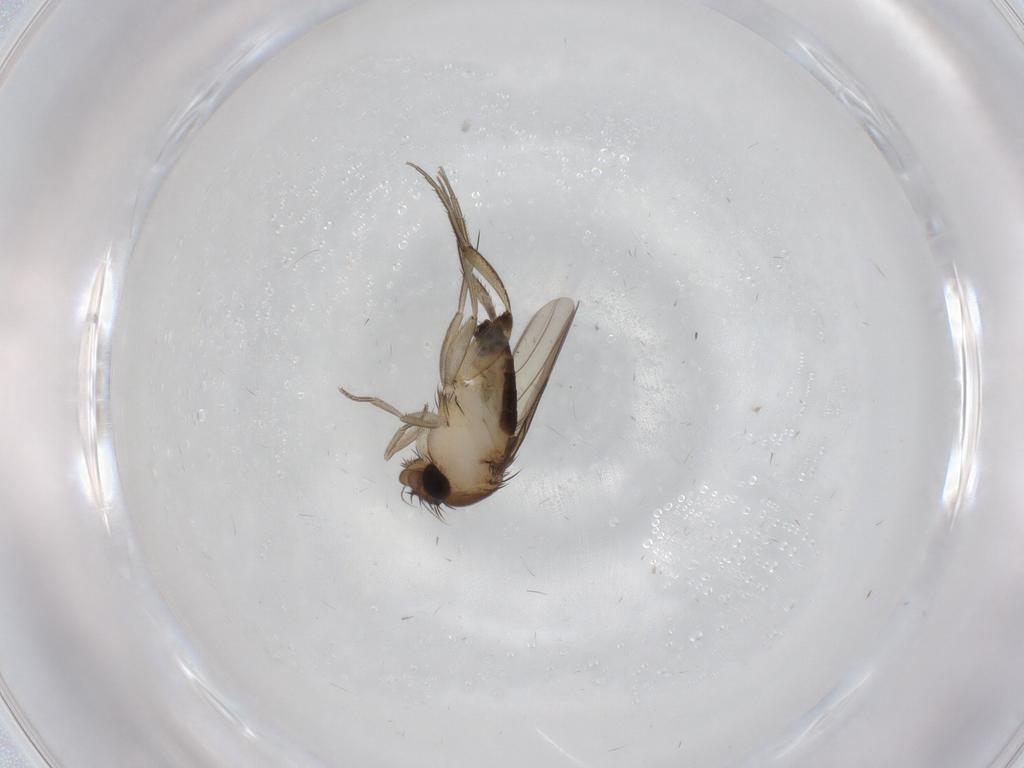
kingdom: Animalia
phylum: Arthropoda
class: Insecta
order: Diptera
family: Phoridae
